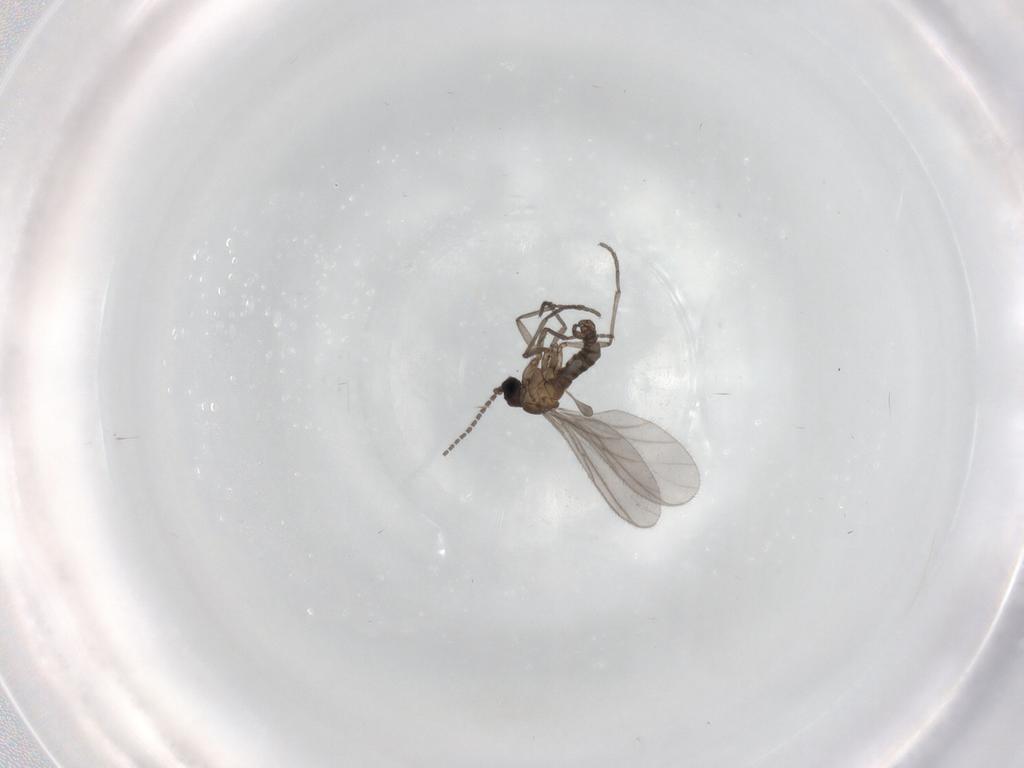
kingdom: Animalia
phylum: Arthropoda
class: Insecta
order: Diptera
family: Sciaridae
